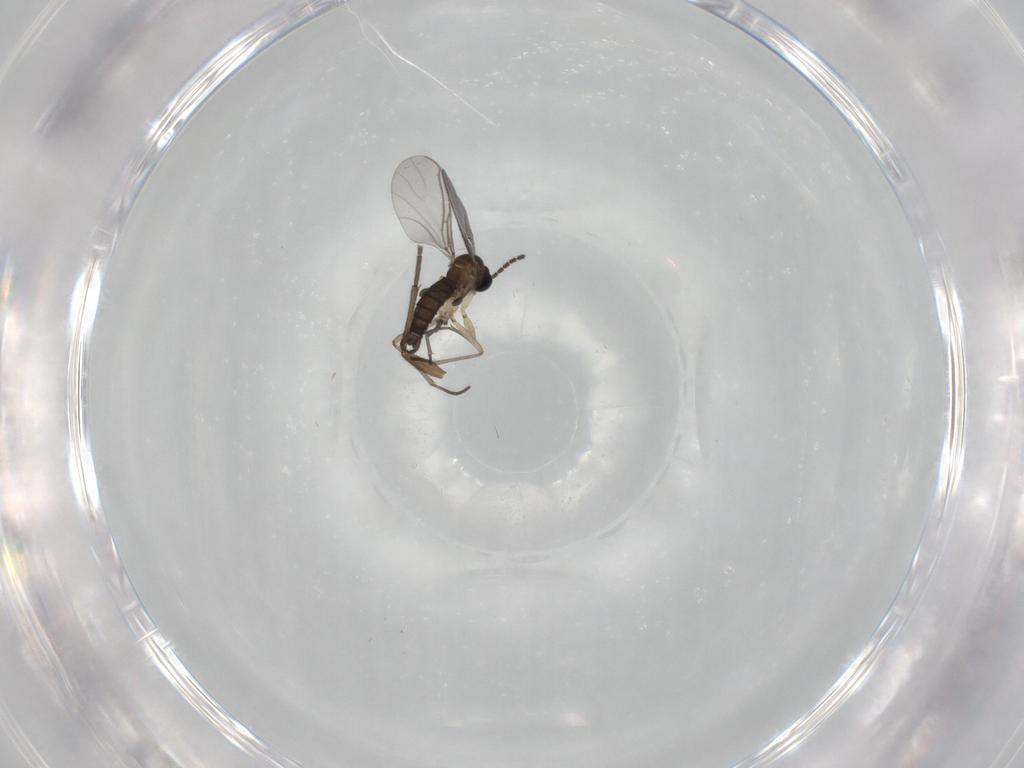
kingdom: Animalia
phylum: Arthropoda
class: Insecta
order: Diptera
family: Sciaridae
